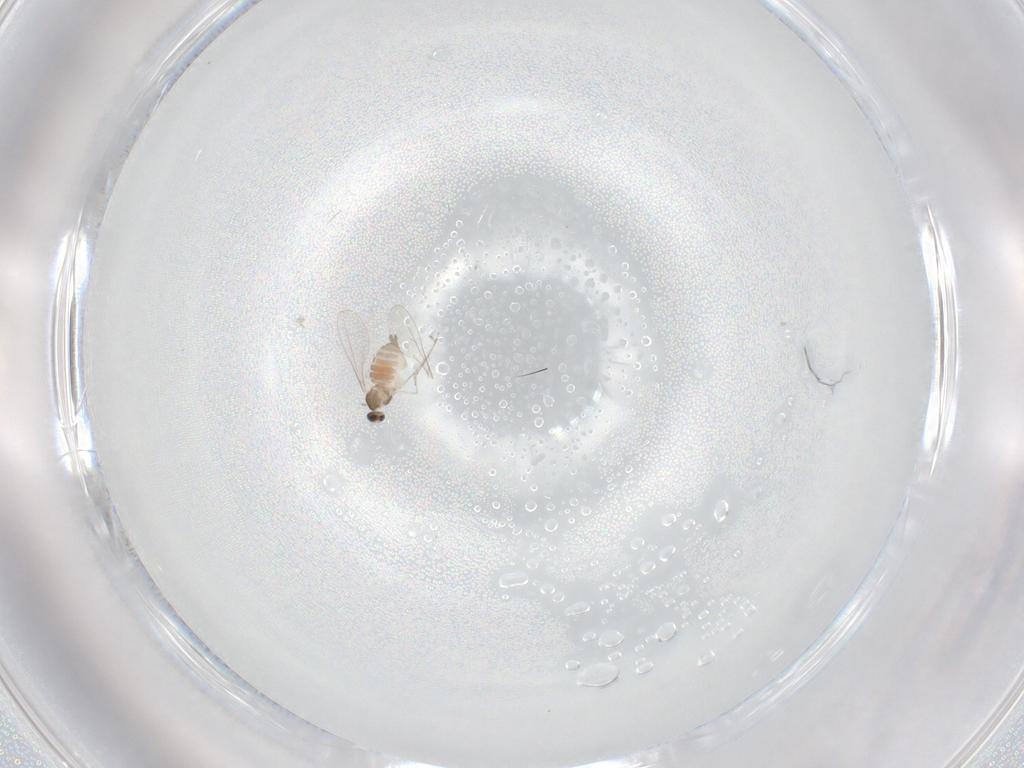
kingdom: Animalia
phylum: Arthropoda
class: Insecta
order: Diptera
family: Cecidomyiidae
